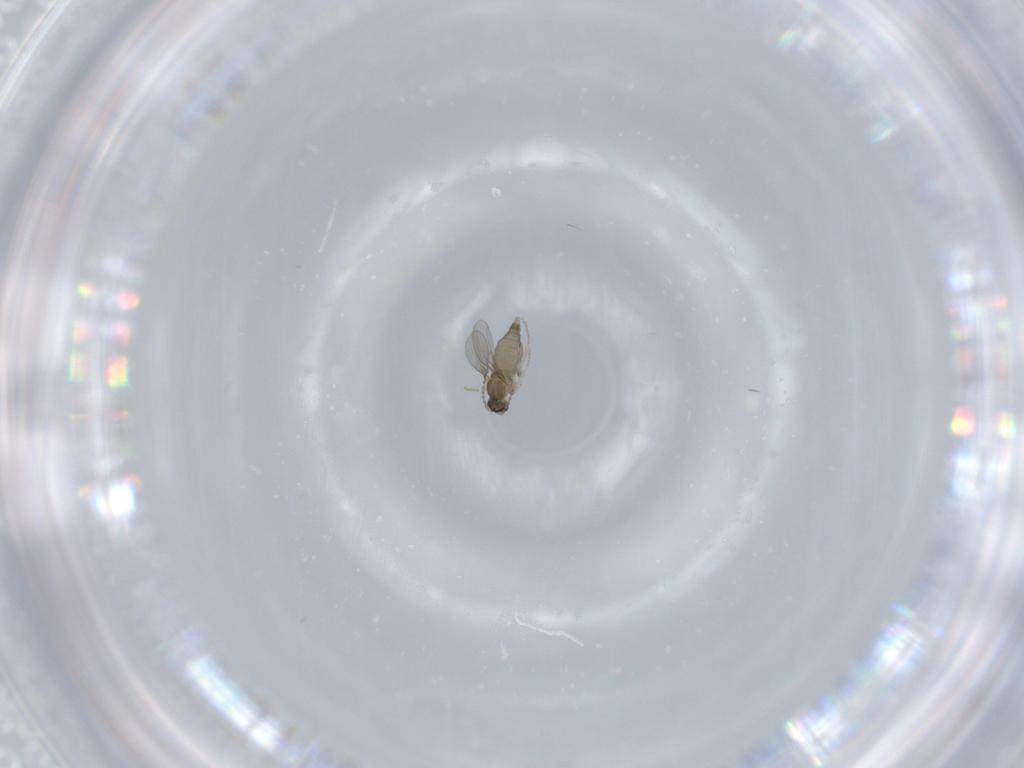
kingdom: Animalia
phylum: Arthropoda
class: Insecta
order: Diptera
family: Cecidomyiidae
